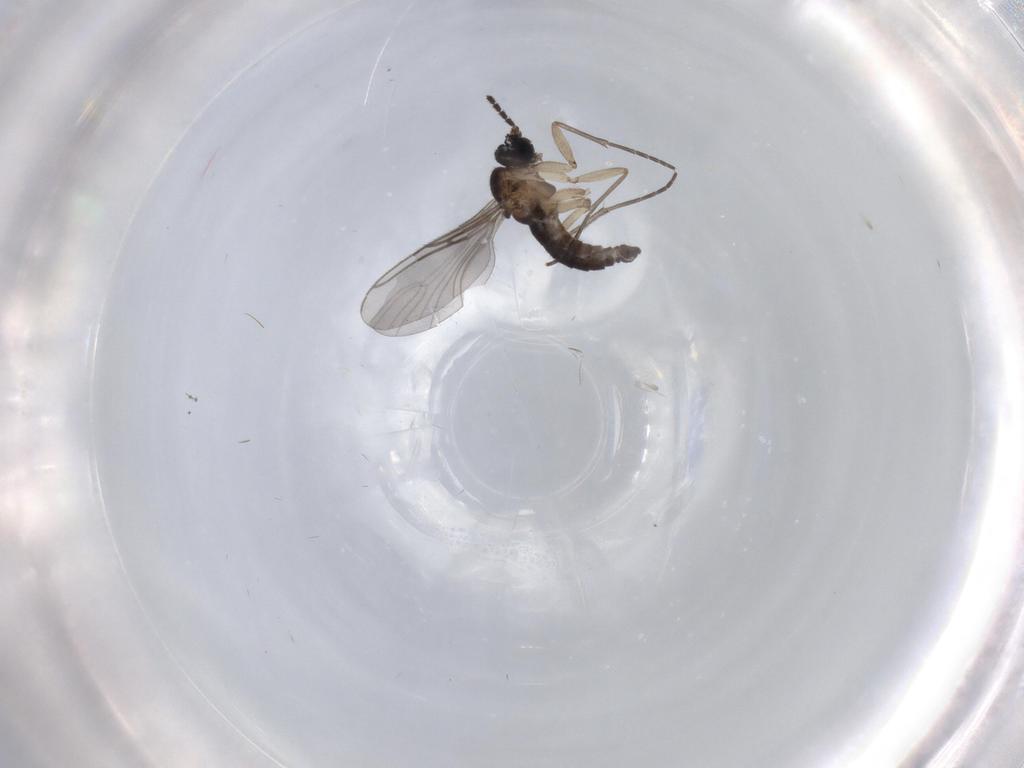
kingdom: Animalia
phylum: Arthropoda
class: Insecta
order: Diptera
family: Sciaridae
